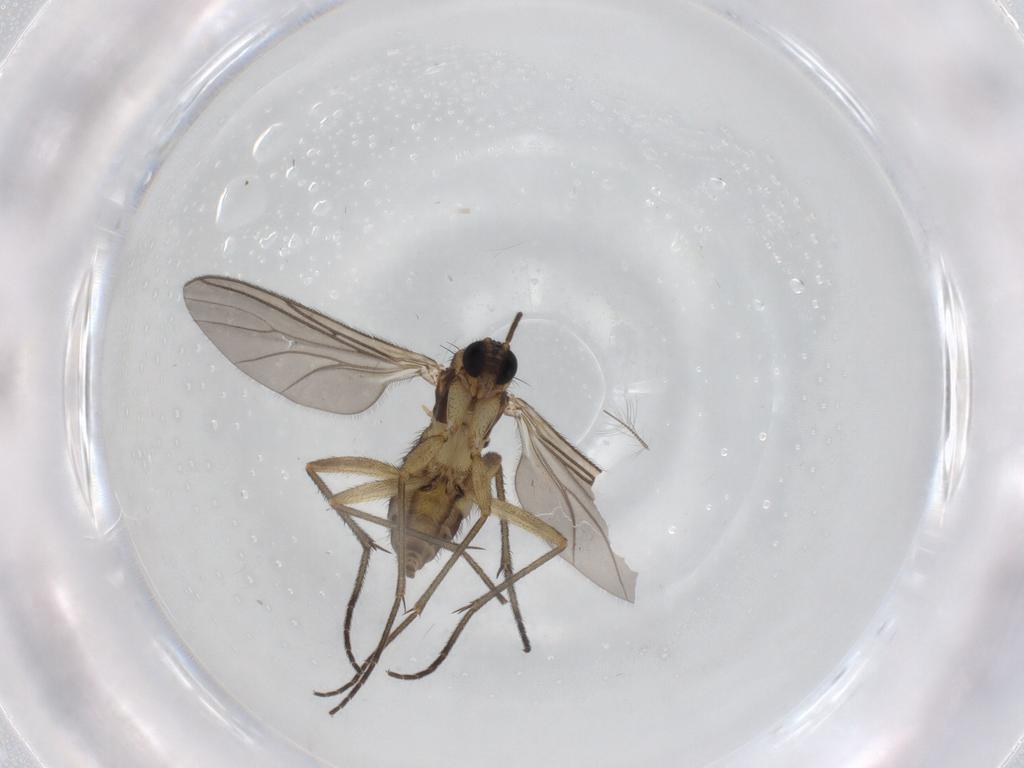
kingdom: Animalia
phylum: Arthropoda
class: Insecta
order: Diptera
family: Sciaridae
